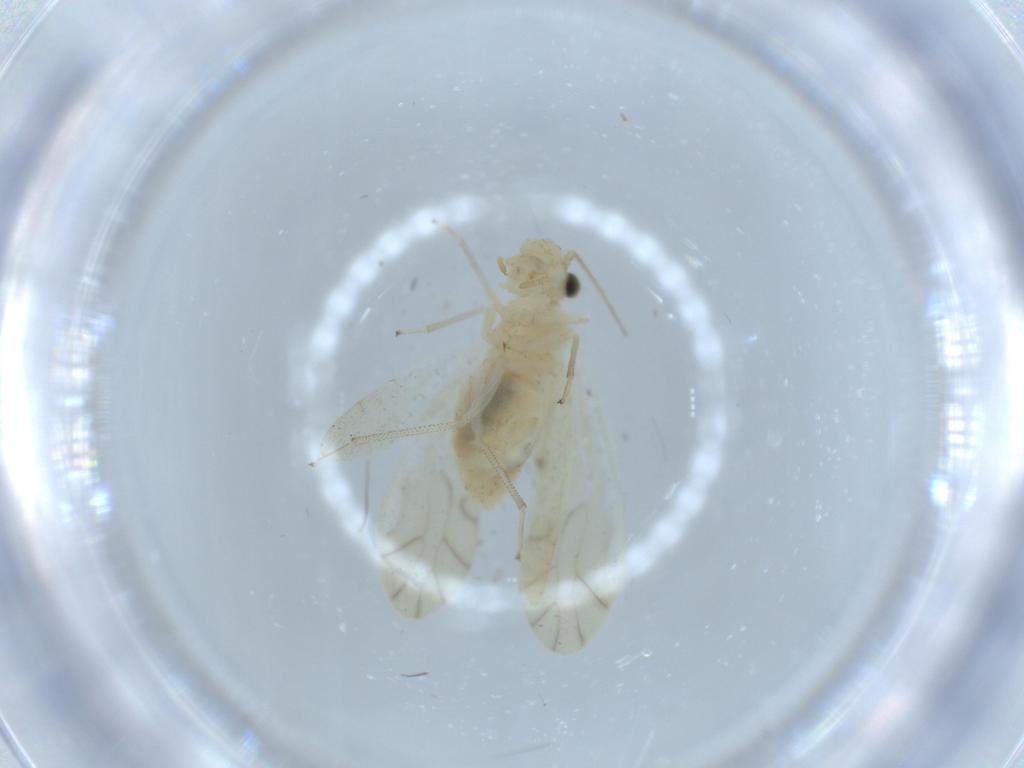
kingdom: Animalia
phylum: Arthropoda
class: Insecta
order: Psocodea
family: Caeciliusidae
